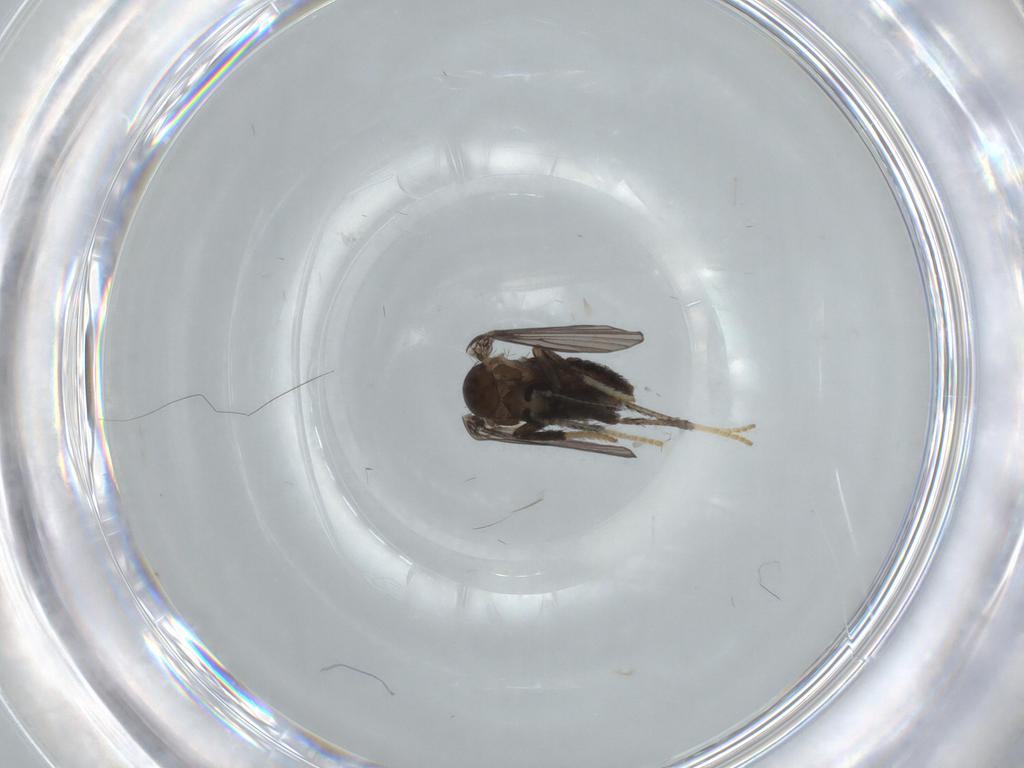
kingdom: Animalia
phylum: Arthropoda
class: Insecta
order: Diptera
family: Psychodidae
